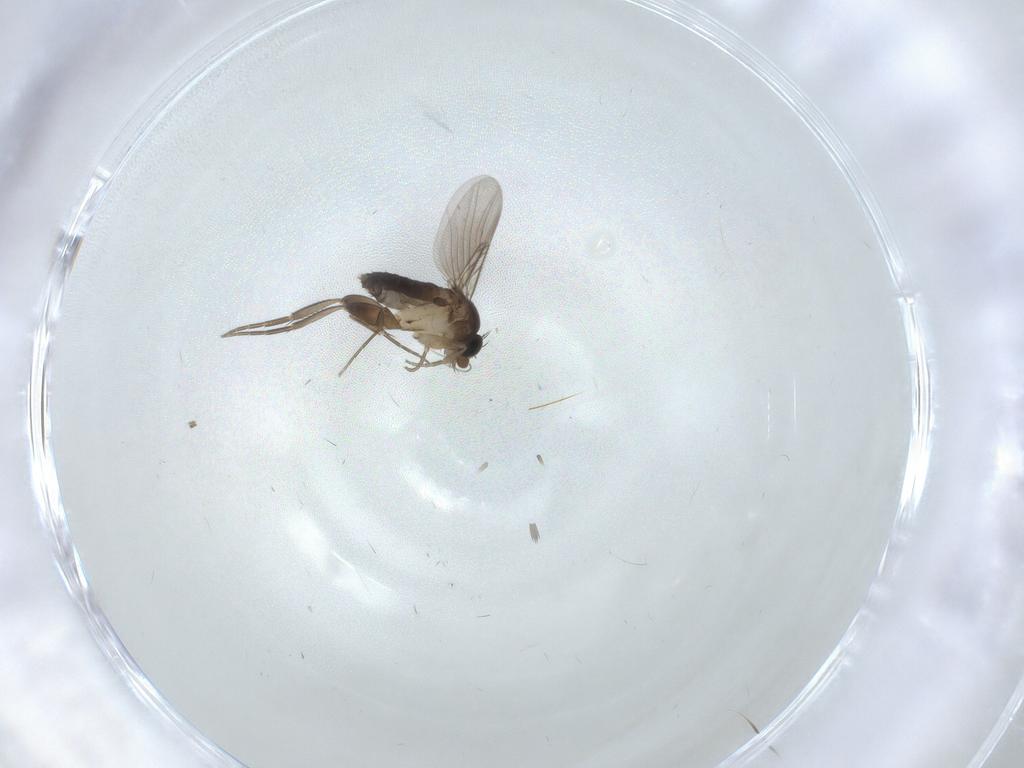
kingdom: Animalia
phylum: Arthropoda
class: Insecta
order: Diptera
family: Phoridae
